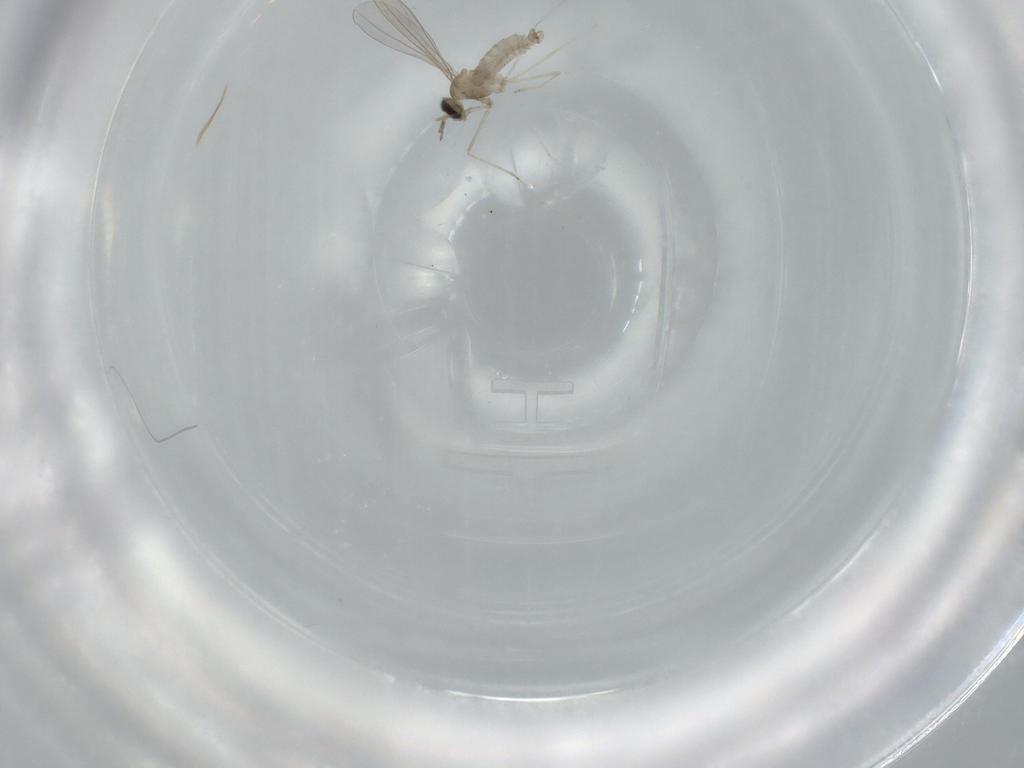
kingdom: Animalia
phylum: Arthropoda
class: Insecta
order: Diptera
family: Cecidomyiidae
